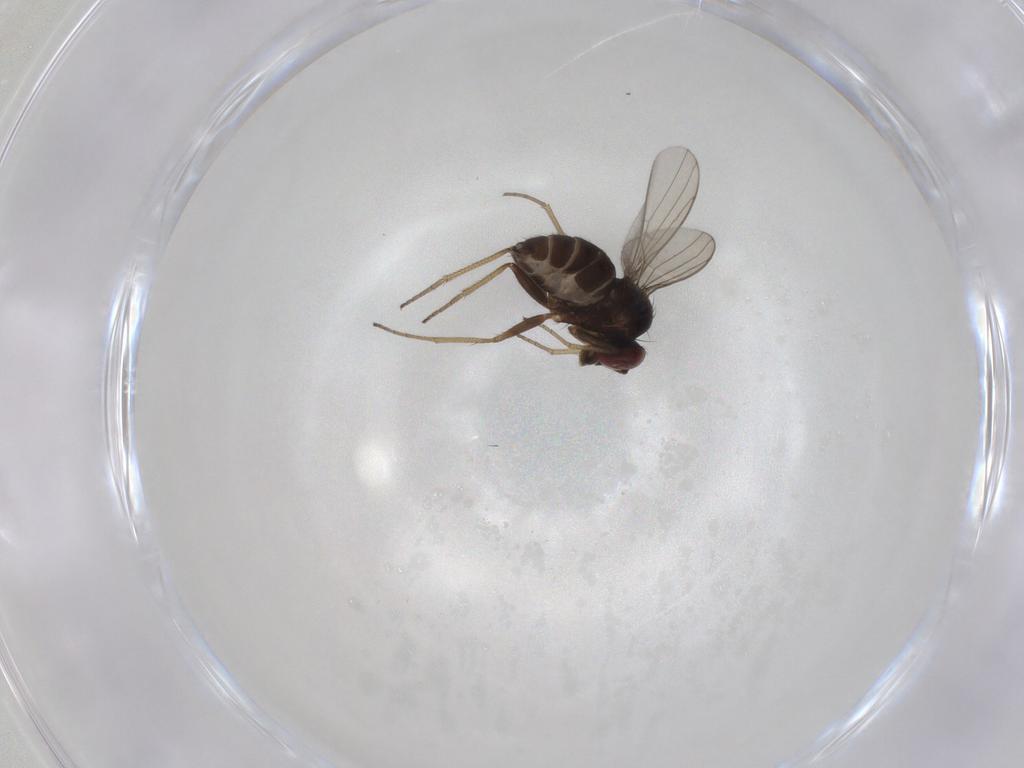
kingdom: Animalia
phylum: Arthropoda
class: Insecta
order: Diptera
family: Dolichopodidae
